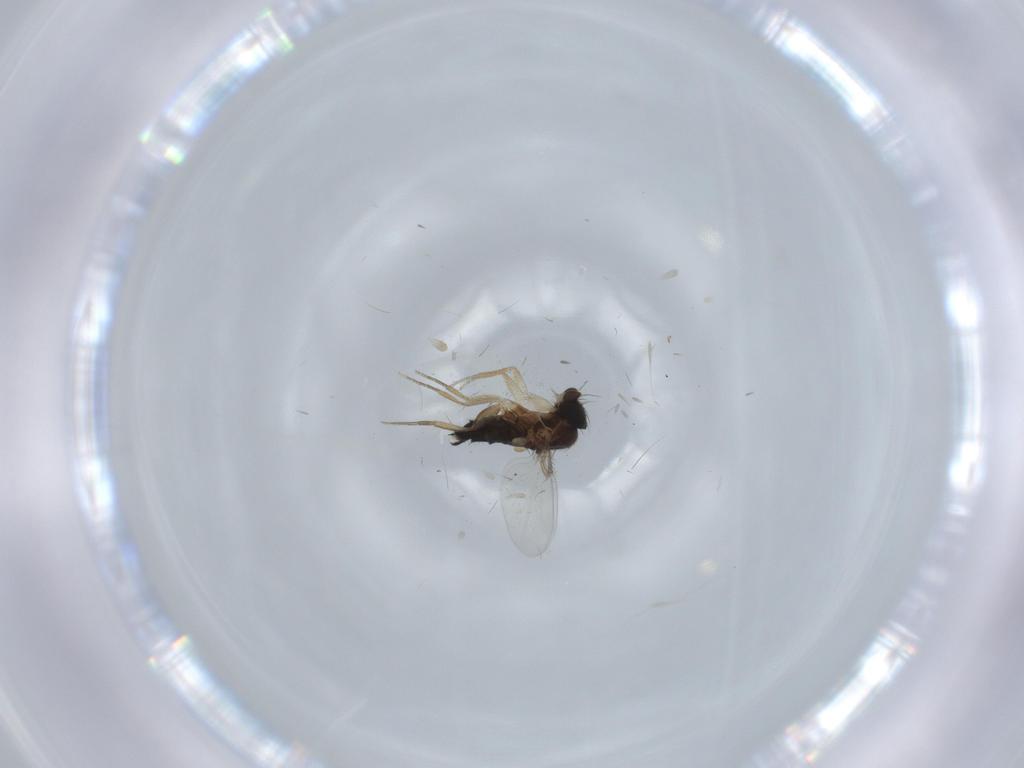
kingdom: Animalia
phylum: Arthropoda
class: Insecta
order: Diptera
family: Phoridae
